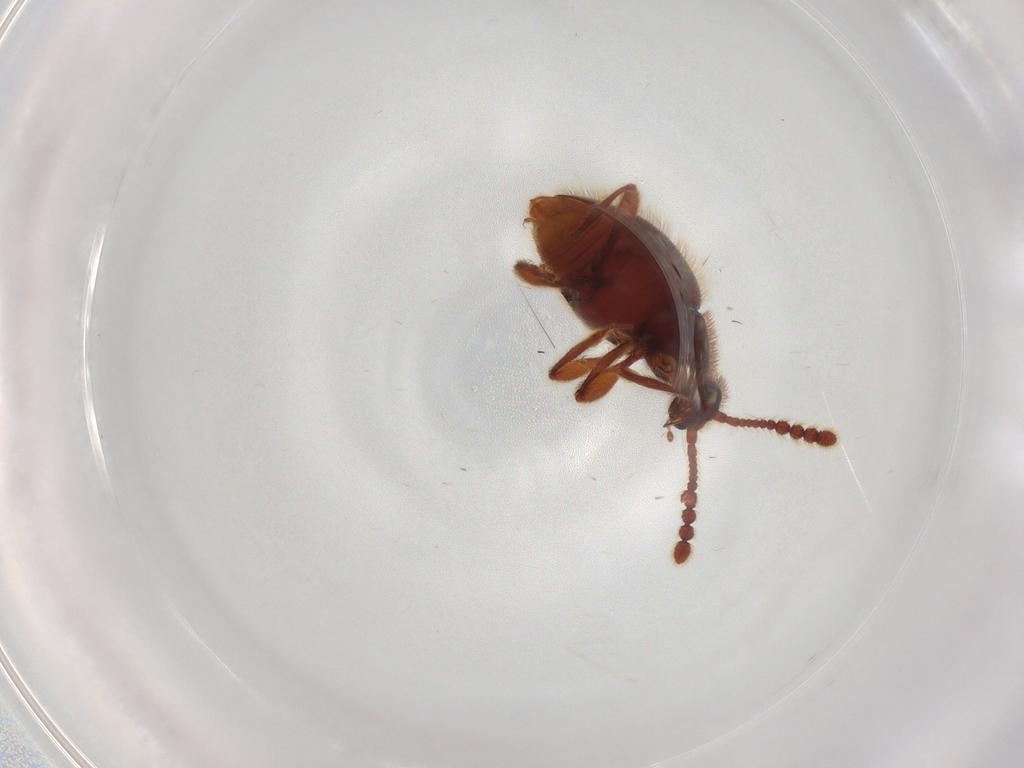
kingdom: Animalia
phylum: Arthropoda
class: Insecta
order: Coleoptera
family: Staphylinidae
